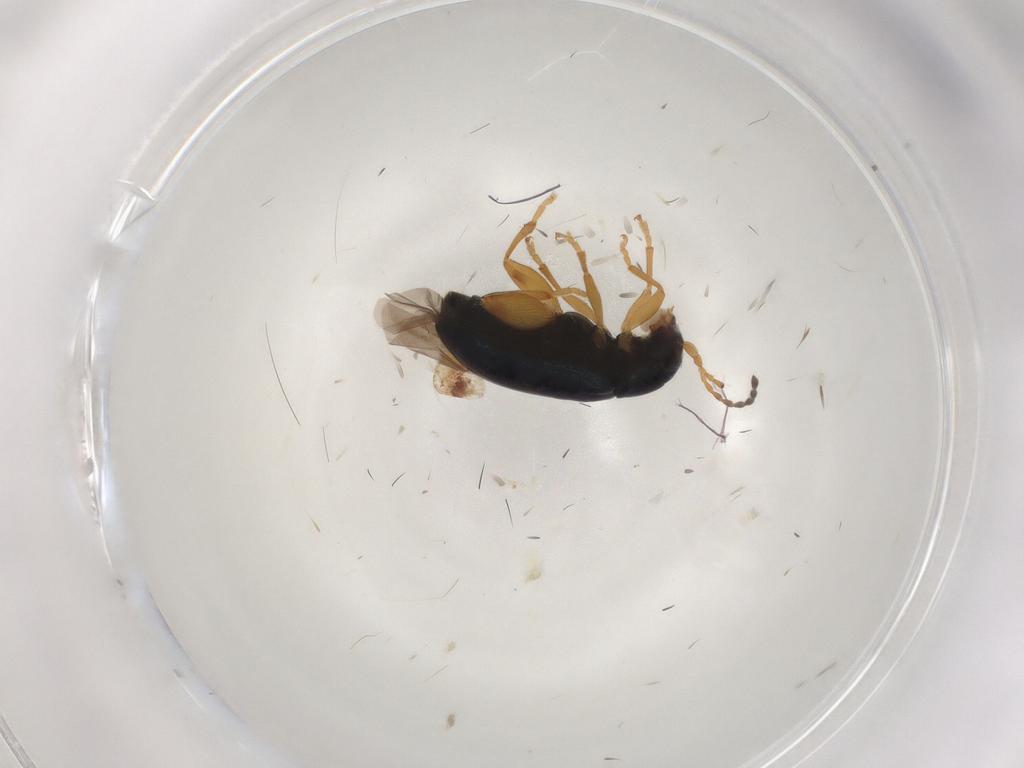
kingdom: Animalia
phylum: Arthropoda
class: Insecta
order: Coleoptera
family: Chrysomelidae
